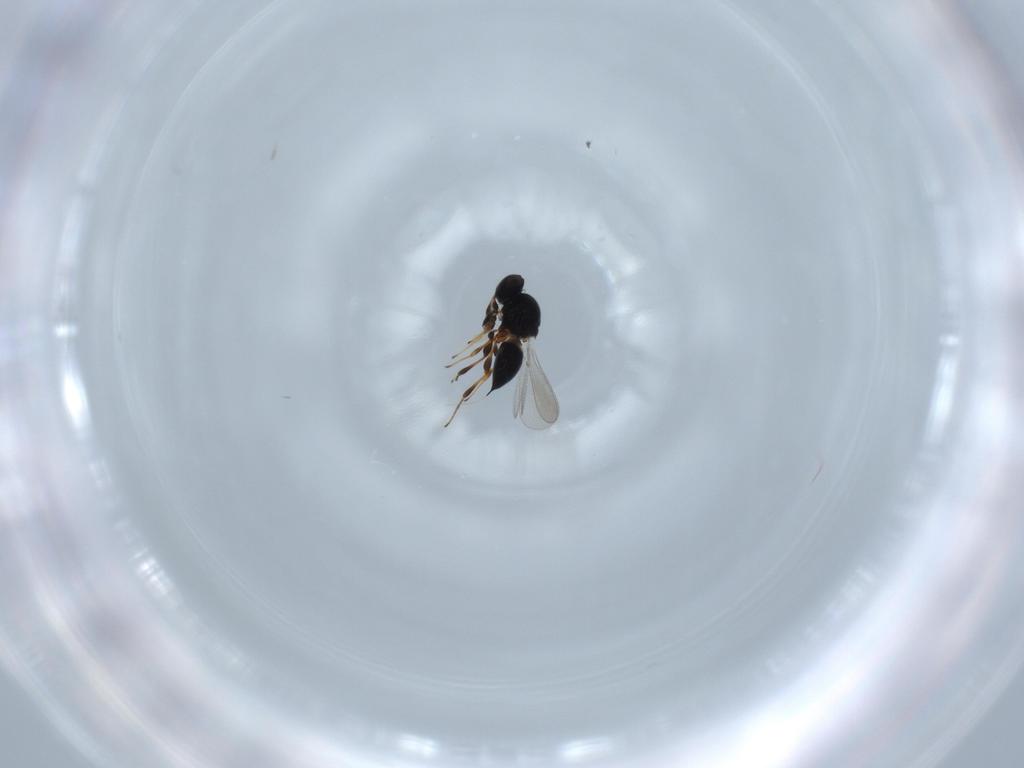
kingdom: Animalia
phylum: Arthropoda
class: Insecta
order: Hymenoptera
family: Platygastridae
